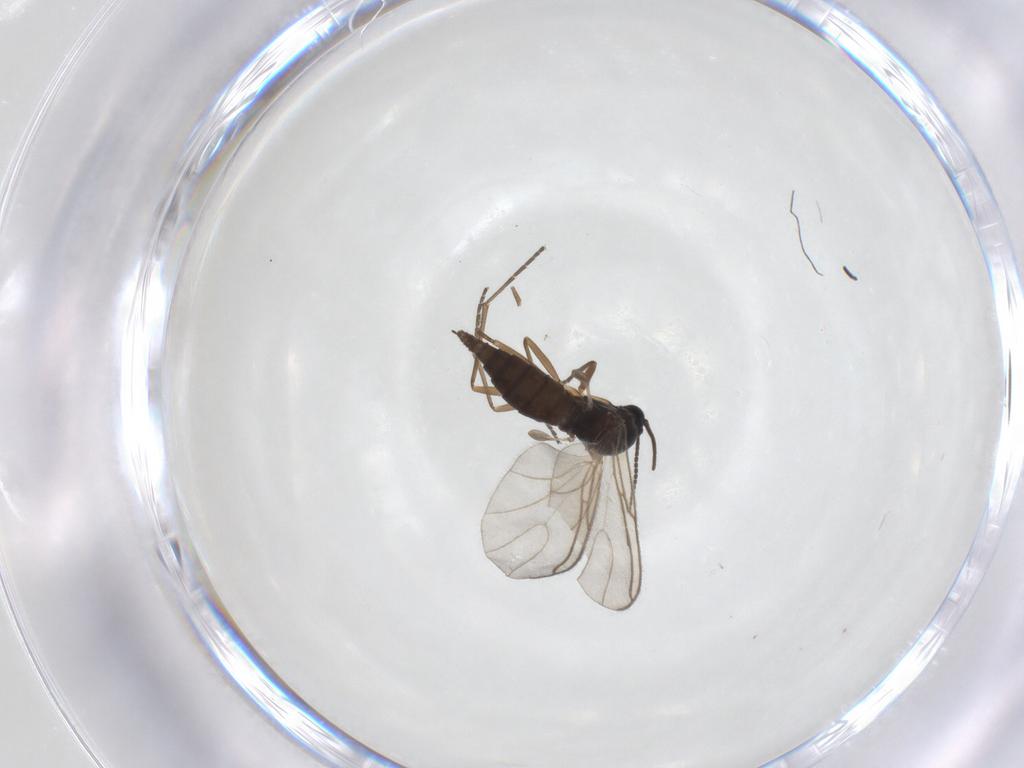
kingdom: Animalia
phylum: Arthropoda
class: Insecta
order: Diptera
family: Sciaridae
